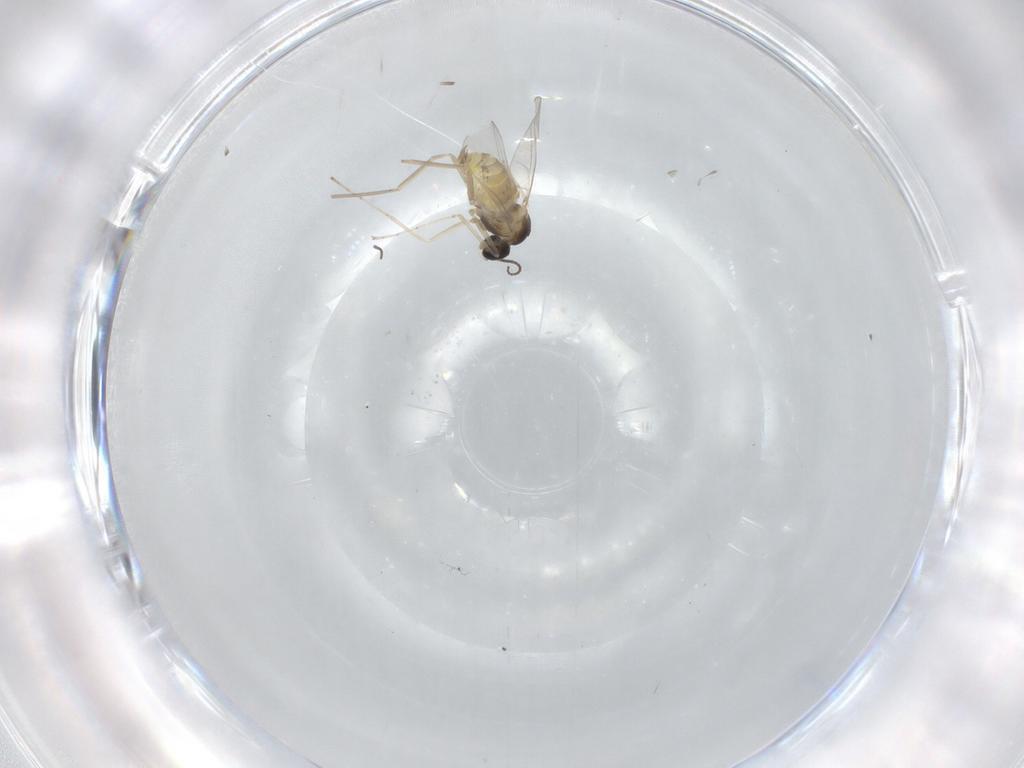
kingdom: Animalia
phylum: Arthropoda
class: Insecta
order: Diptera
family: Cecidomyiidae
